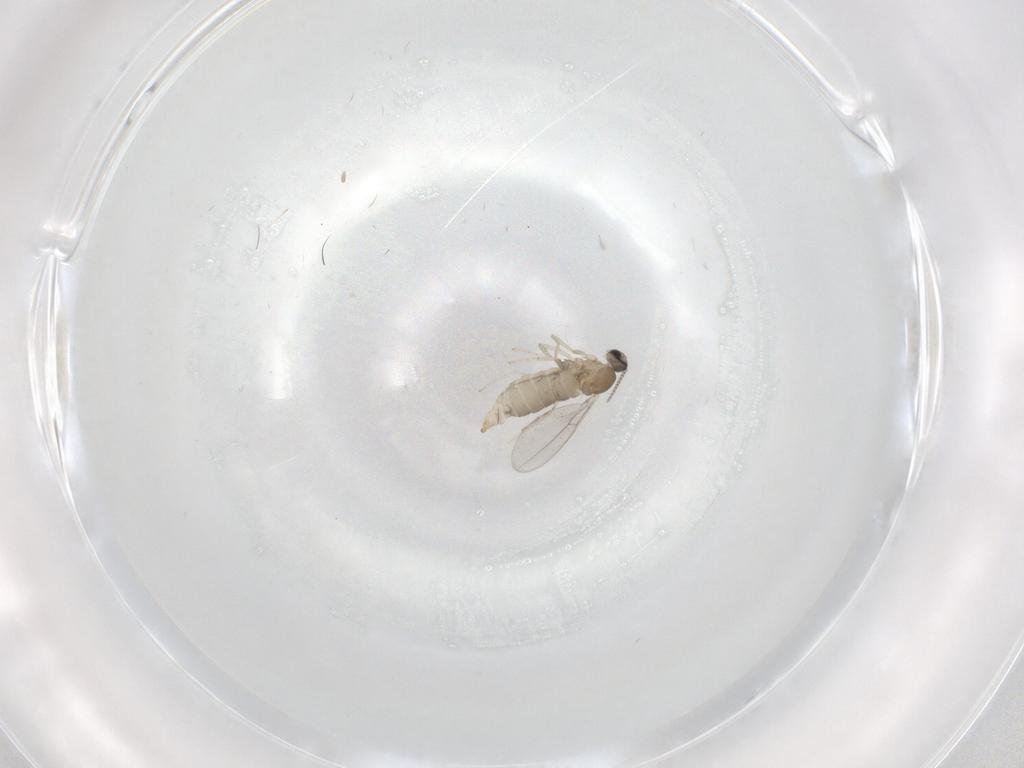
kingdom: Animalia
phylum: Arthropoda
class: Insecta
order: Diptera
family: Cecidomyiidae
